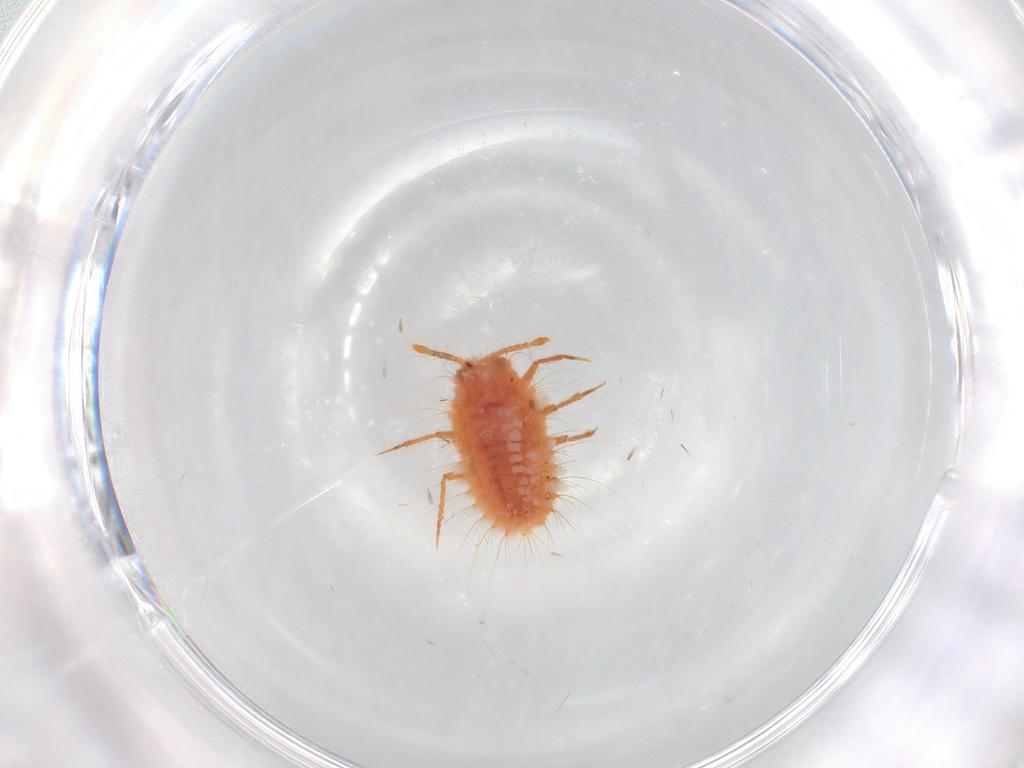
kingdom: Animalia
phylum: Arthropoda
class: Insecta
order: Hemiptera
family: Coccoidea_incertae_sedis
